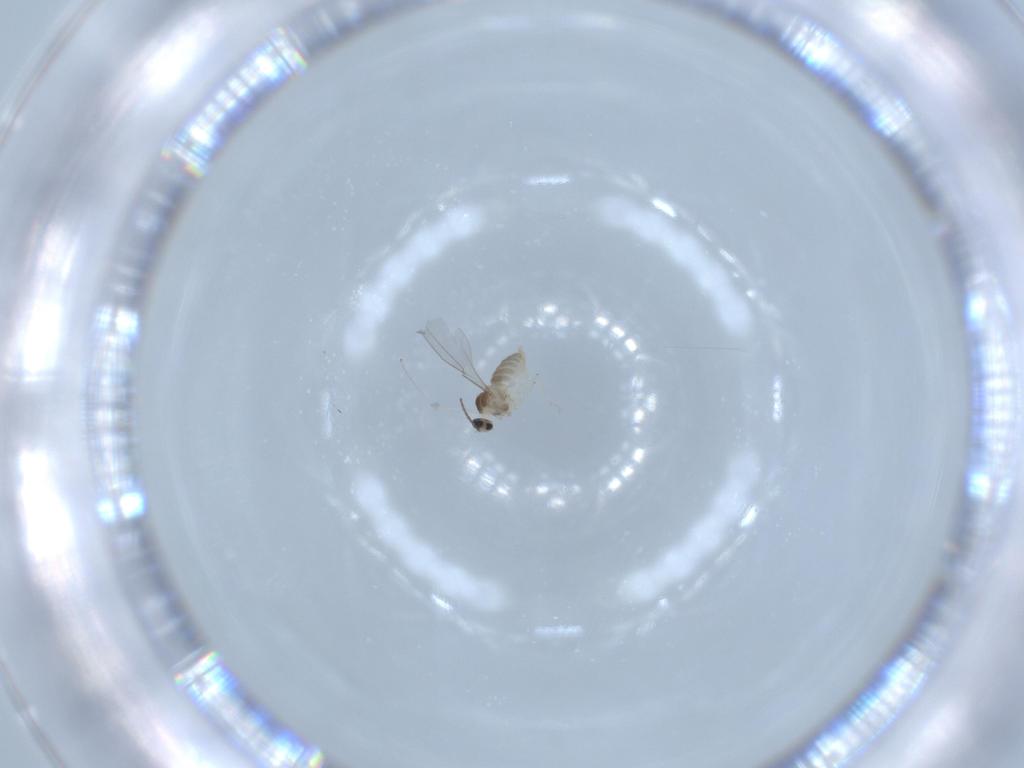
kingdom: Animalia
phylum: Arthropoda
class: Insecta
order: Diptera
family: Cecidomyiidae
